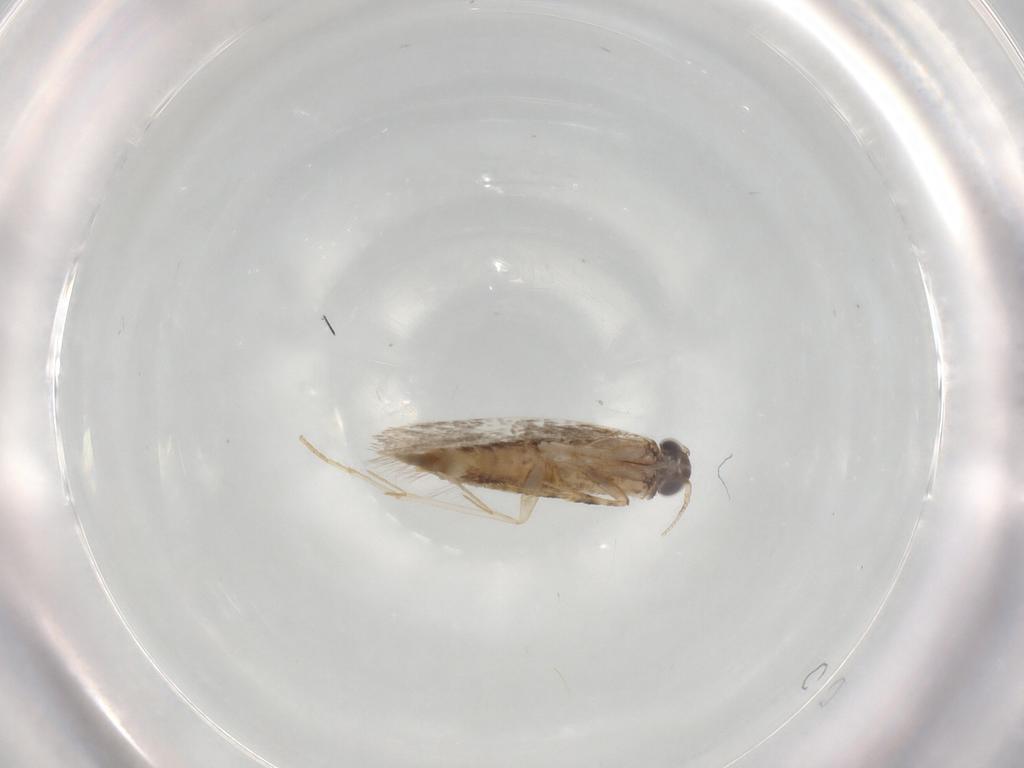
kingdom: Animalia
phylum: Arthropoda
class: Insecta
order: Lepidoptera
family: Tineidae
